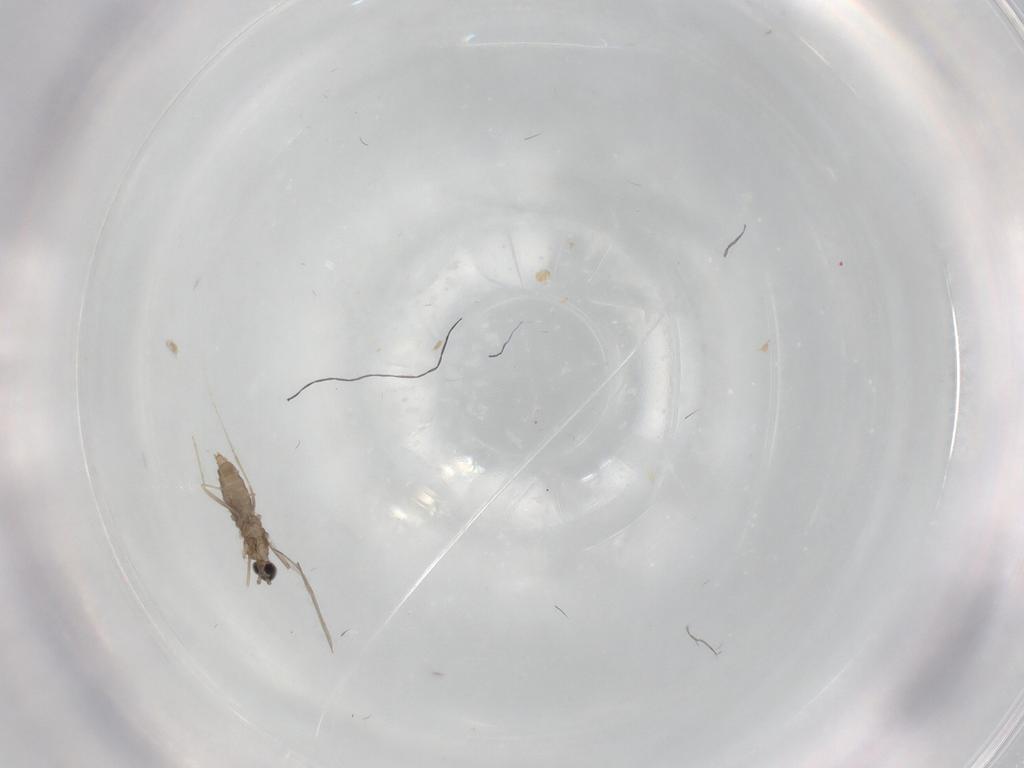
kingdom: Animalia
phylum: Arthropoda
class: Insecta
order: Diptera
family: Cecidomyiidae
